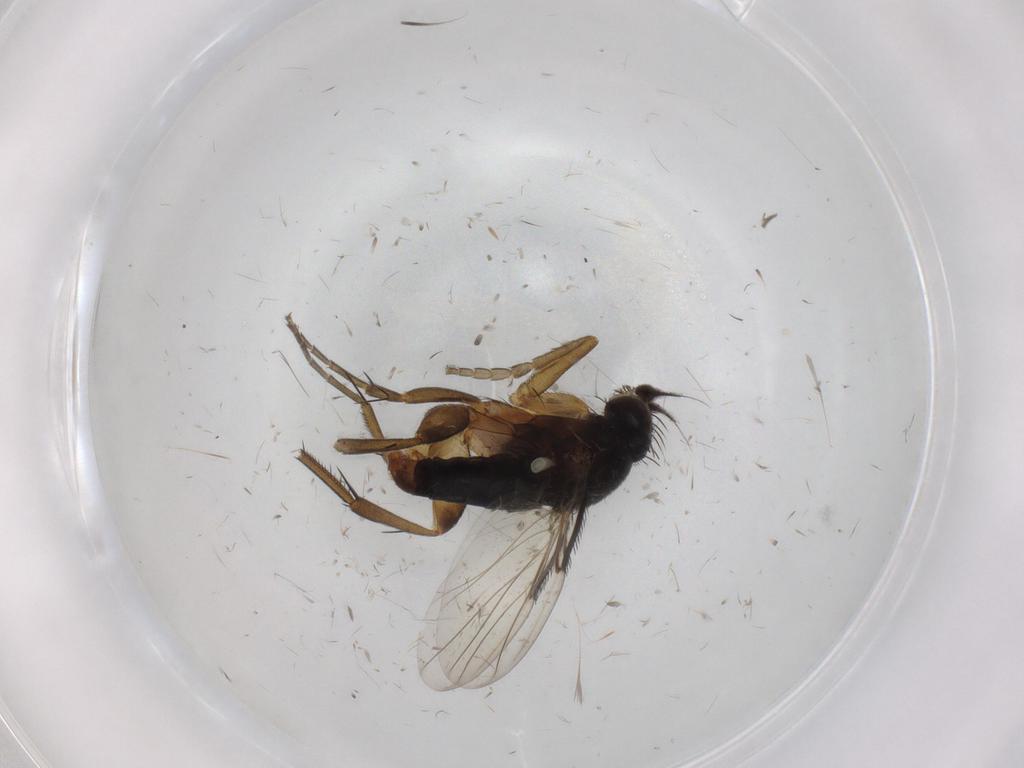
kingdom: Animalia
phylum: Arthropoda
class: Insecta
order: Diptera
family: Phoridae
